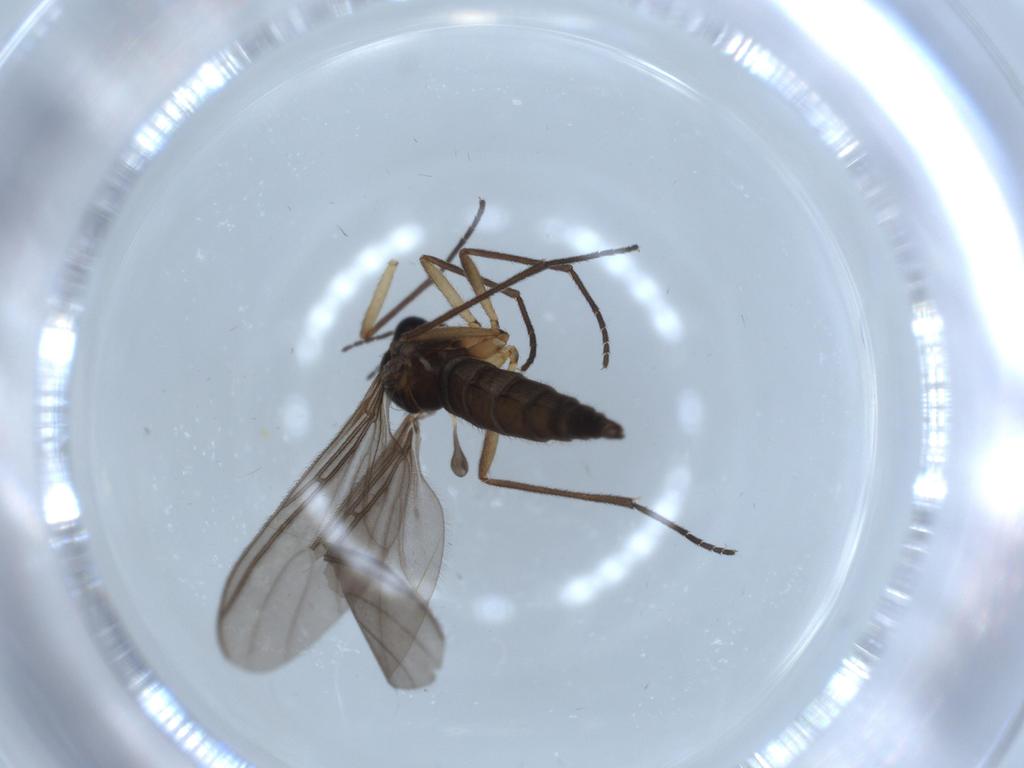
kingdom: Animalia
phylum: Arthropoda
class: Insecta
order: Diptera
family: Sciaridae
